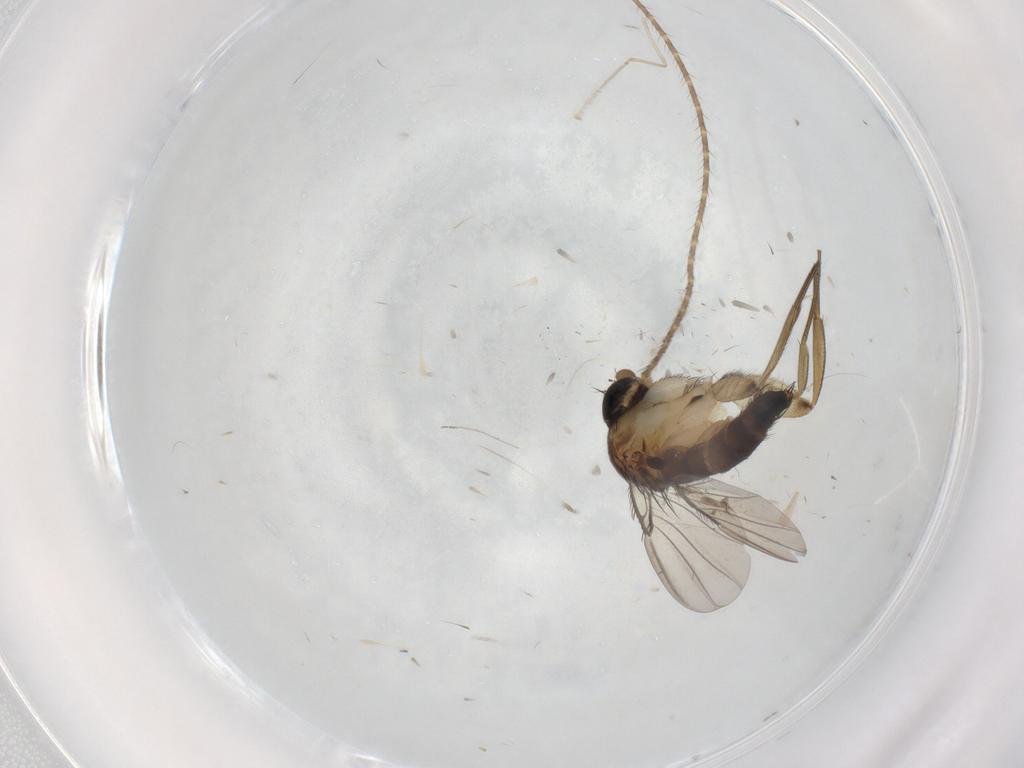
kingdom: Animalia
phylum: Arthropoda
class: Insecta
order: Diptera
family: Phoridae
